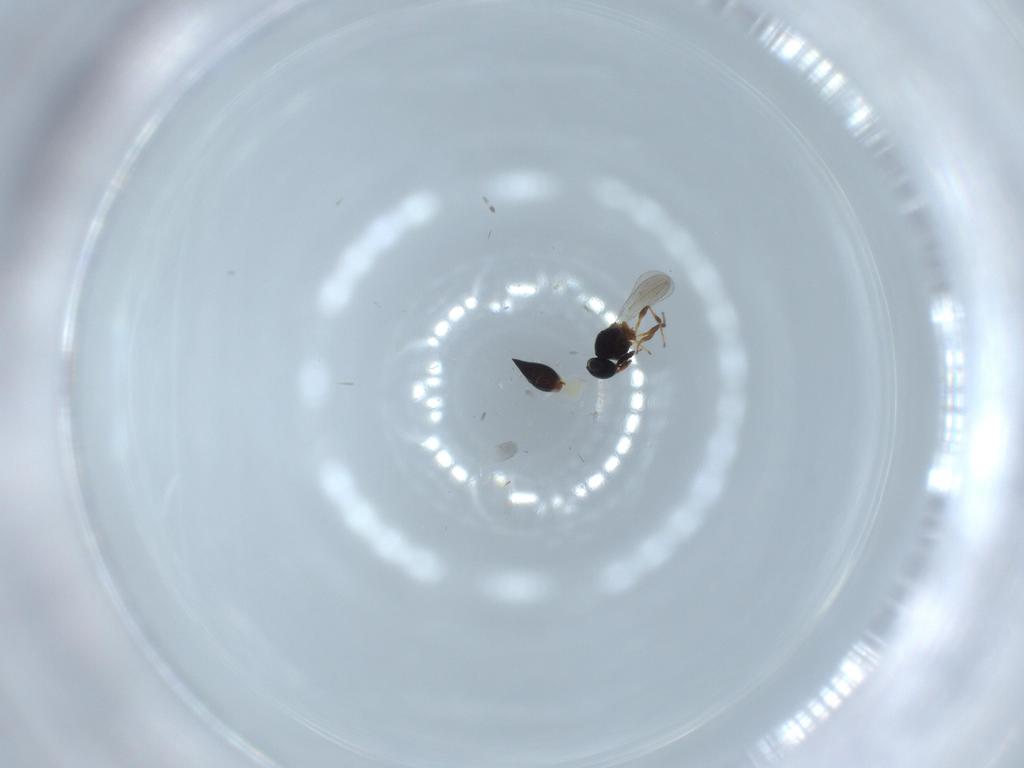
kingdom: Animalia
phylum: Arthropoda
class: Insecta
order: Hymenoptera
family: Platygastridae
